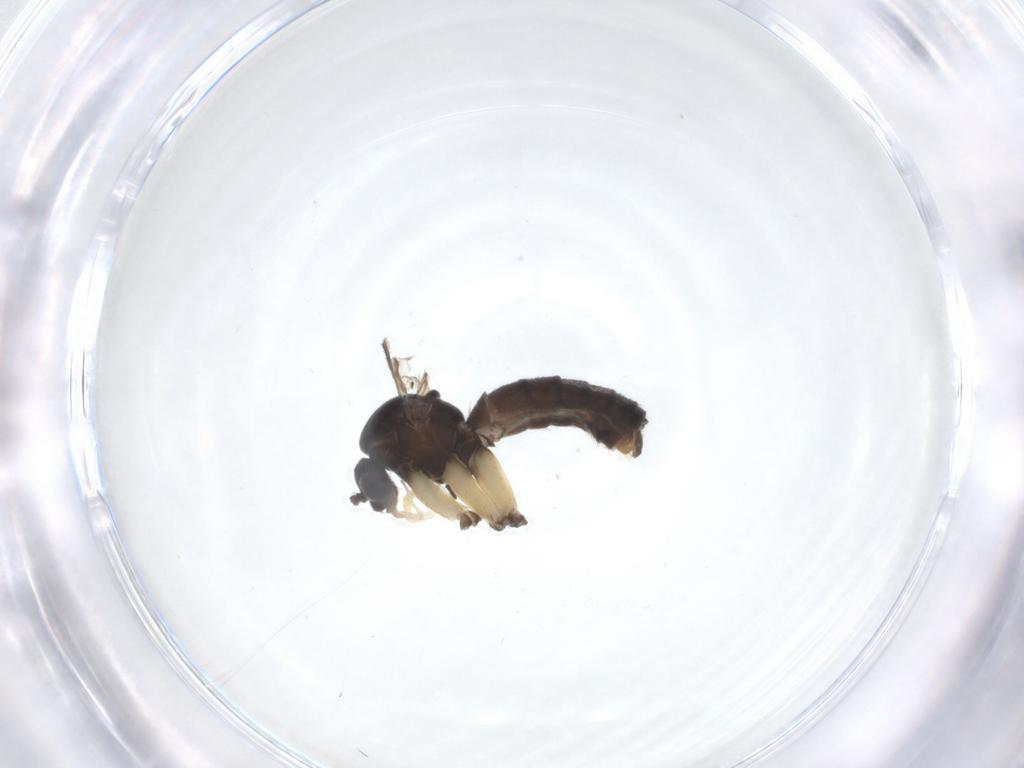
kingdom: Animalia
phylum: Arthropoda
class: Insecta
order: Diptera
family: Mycetophilidae
